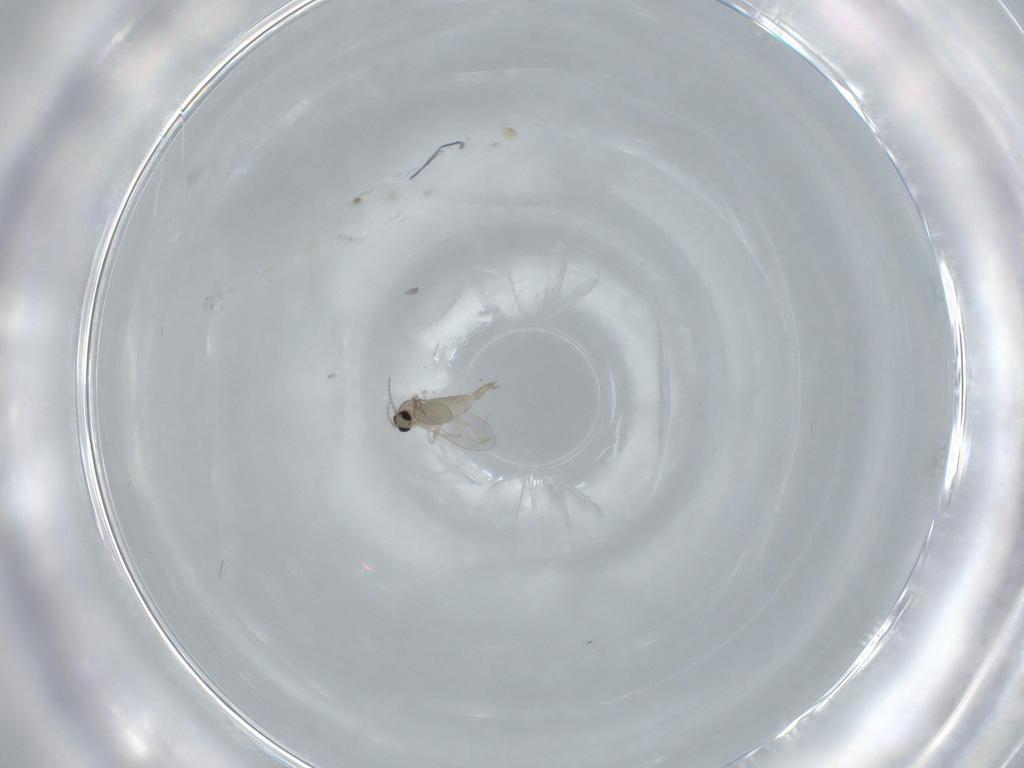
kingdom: Animalia
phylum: Arthropoda
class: Insecta
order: Diptera
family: Cecidomyiidae
